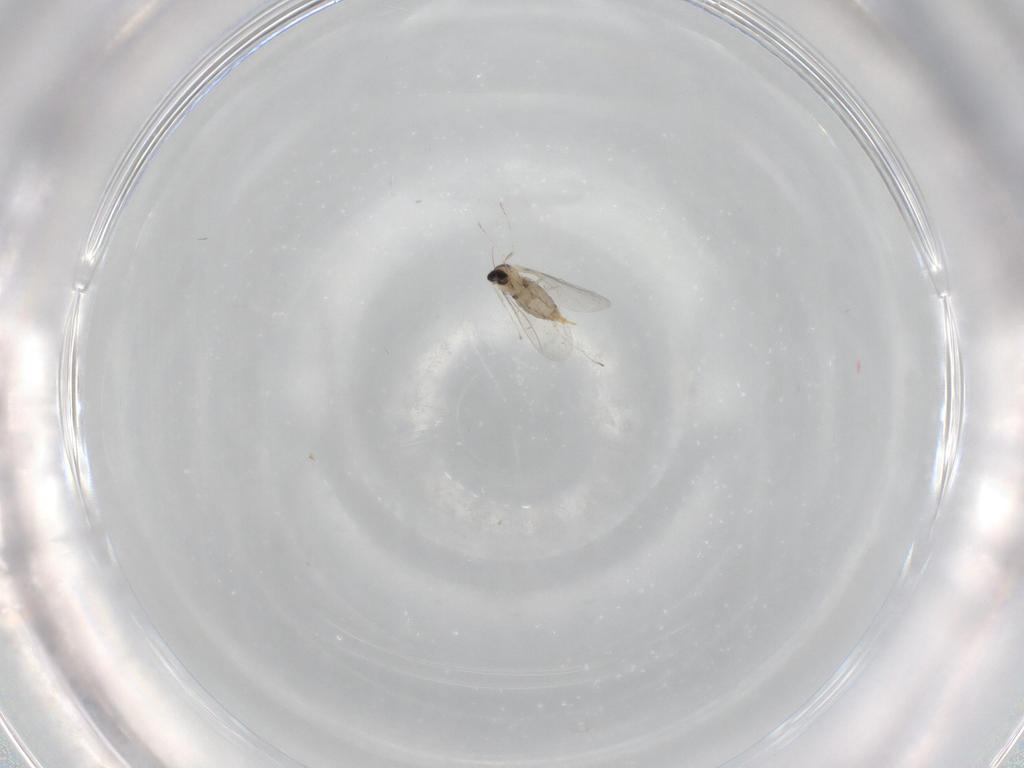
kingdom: Animalia
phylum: Arthropoda
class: Insecta
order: Diptera
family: Cecidomyiidae
